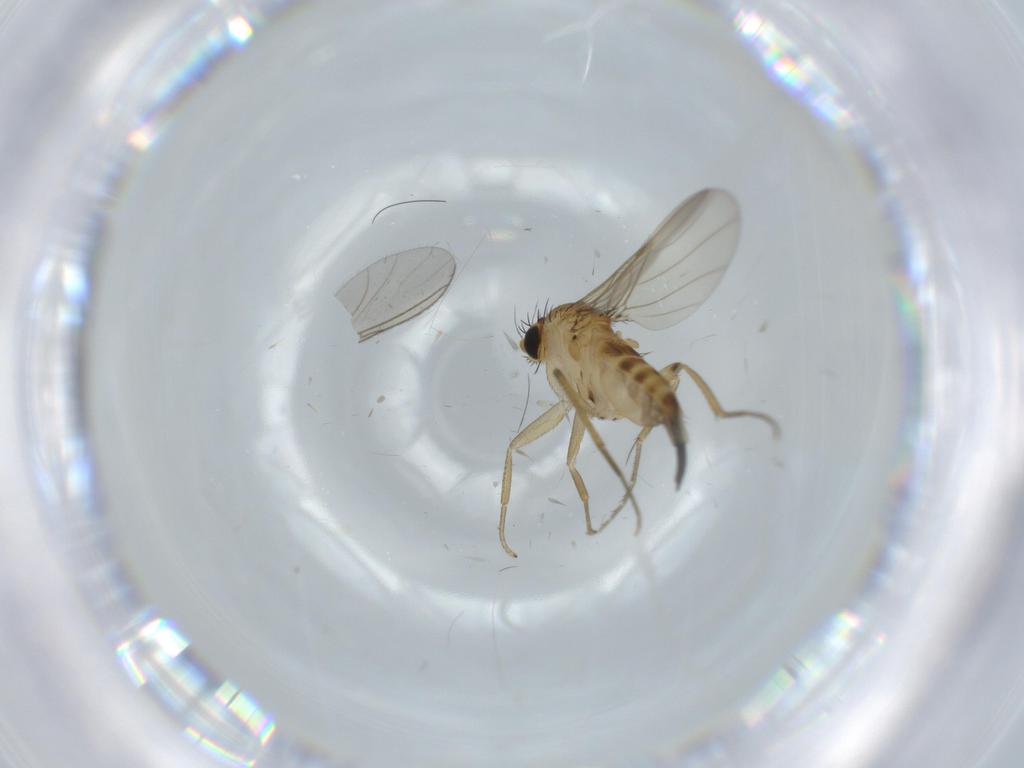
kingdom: Animalia
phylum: Arthropoda
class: Insecta
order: Diptera
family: Phoridae
